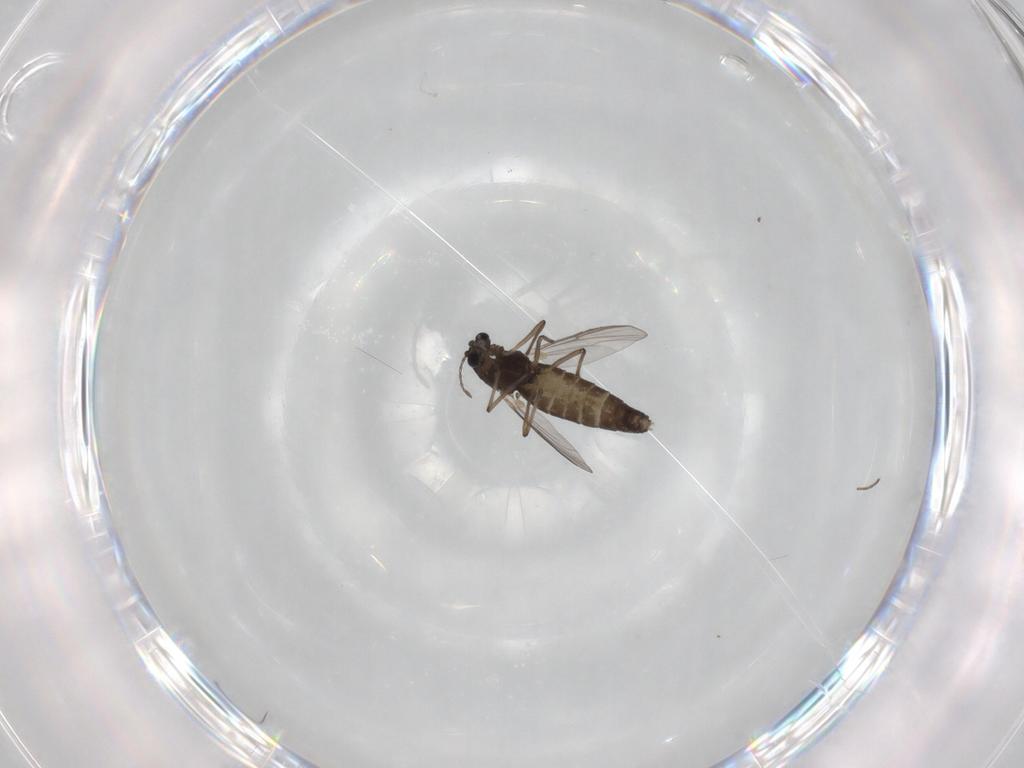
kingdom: Animalia
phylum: Arthropoda
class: Insecta
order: Diptera
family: Chironomidae
